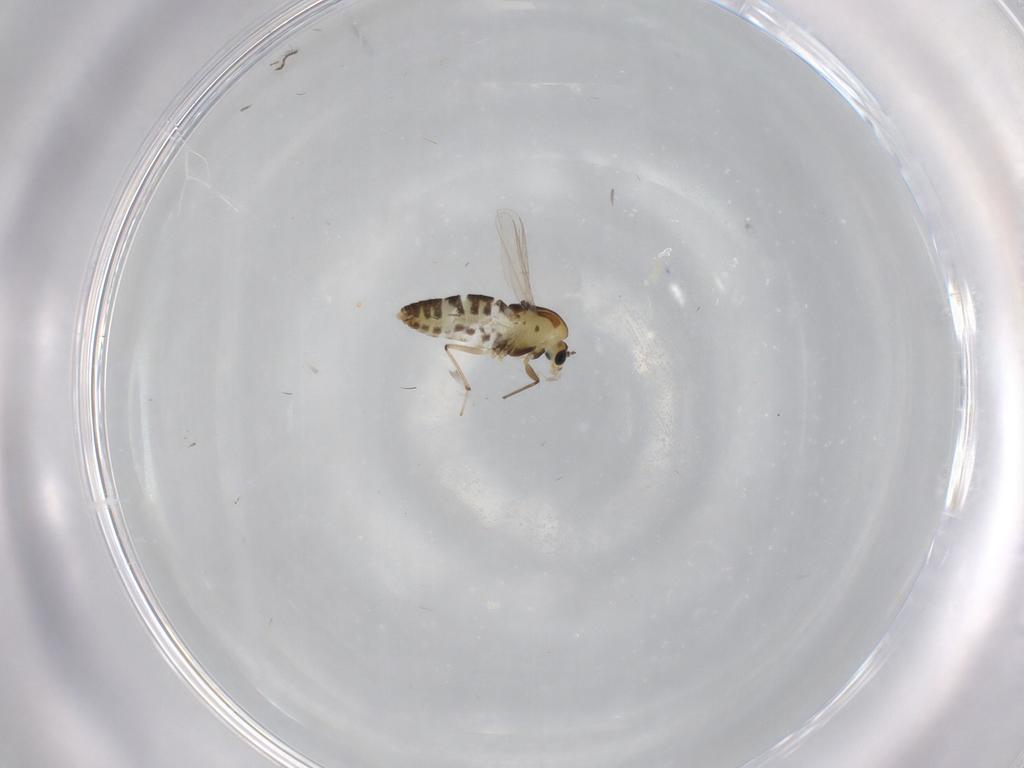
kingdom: Animalia
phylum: Arthropoda
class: Insecta
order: Diptera
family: Chironomidae
